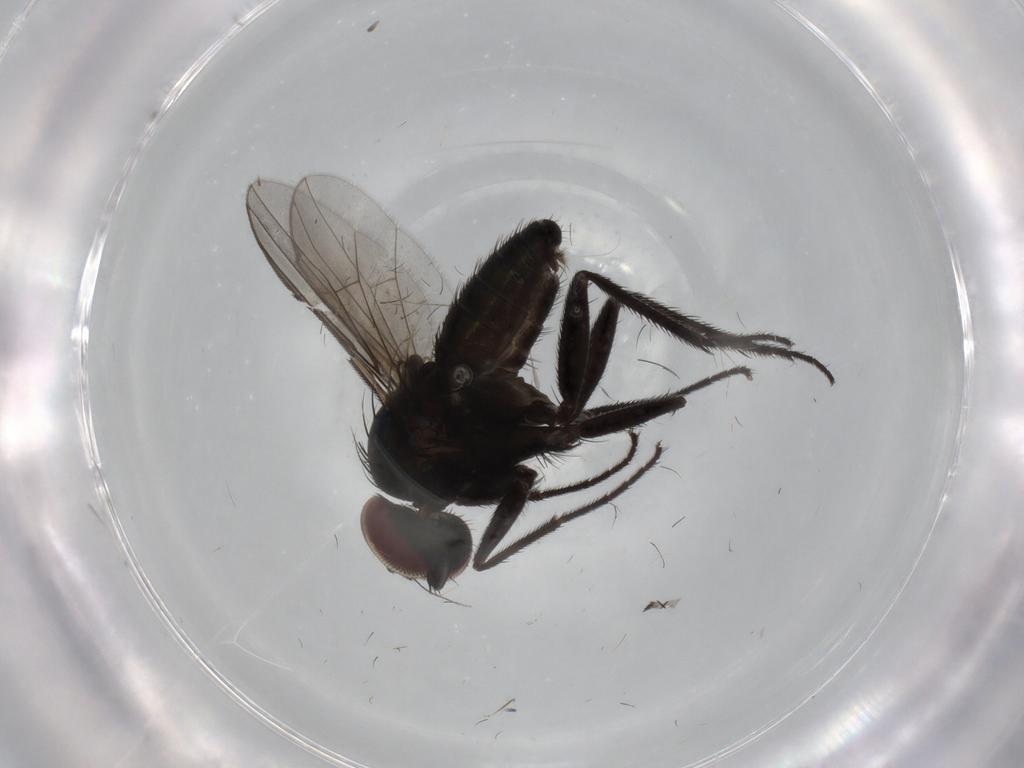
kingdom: Animalia
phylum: Arthropoda
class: Insecta
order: Diptera
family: Dolichopodidae
